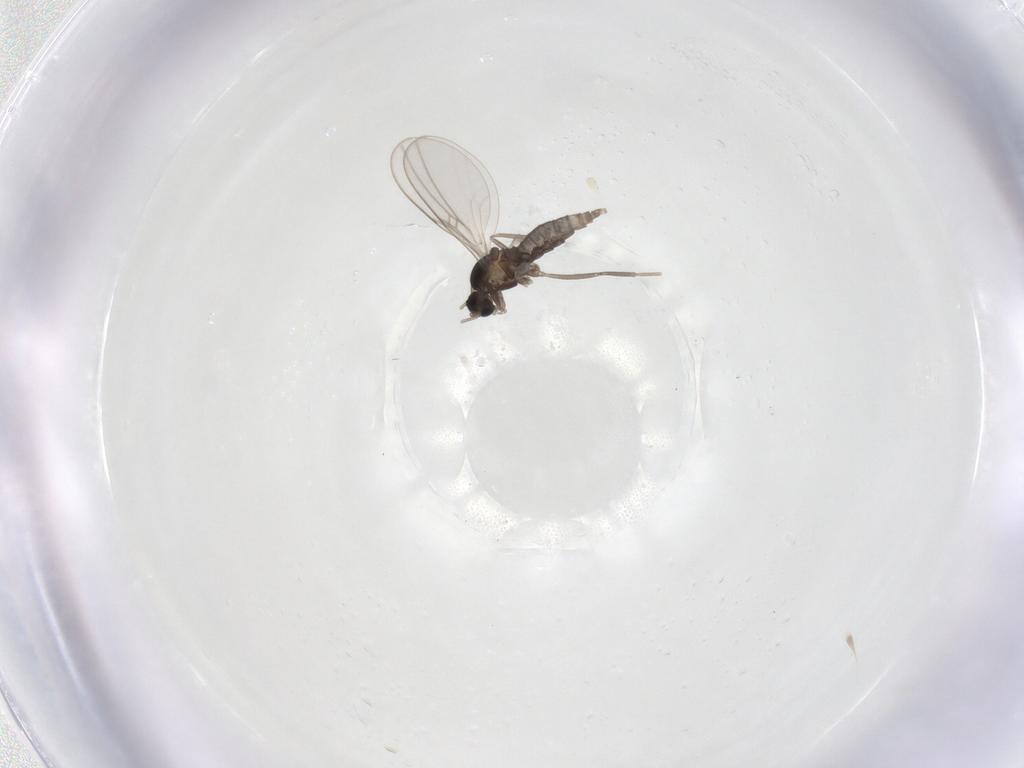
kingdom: Animalia
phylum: Arthropoda
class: Insecta
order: Diptera
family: Cecidomyiidae
